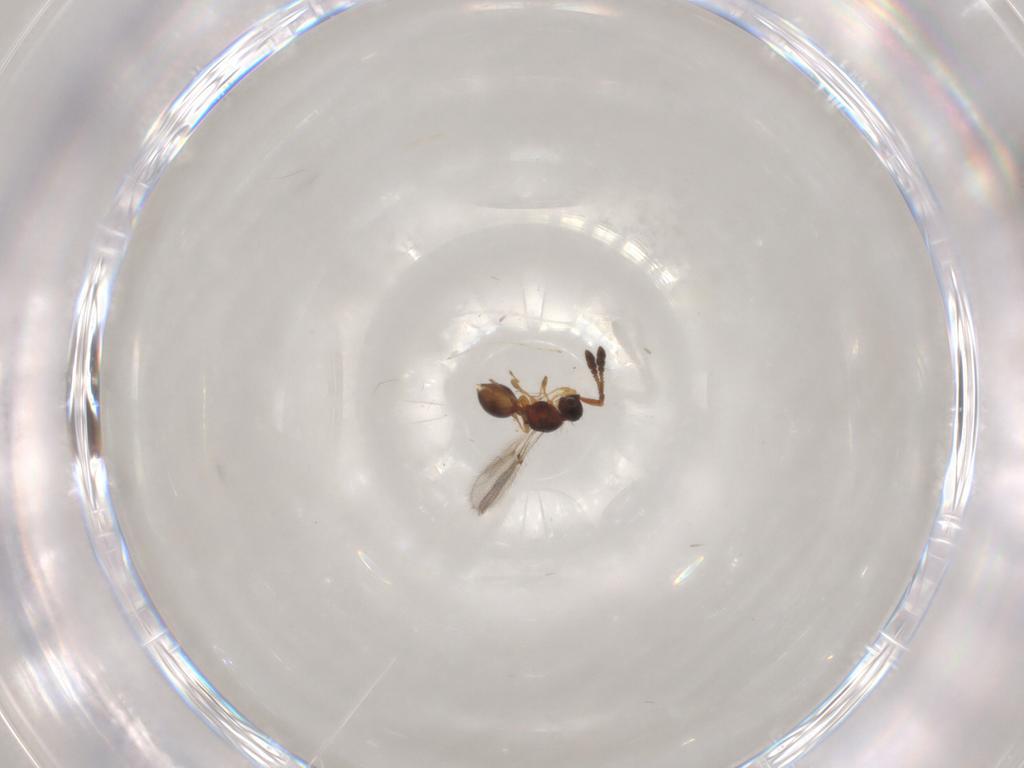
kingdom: Animalia
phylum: Arthropoda
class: Insecta
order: Hymenoptera
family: Diapriidae
